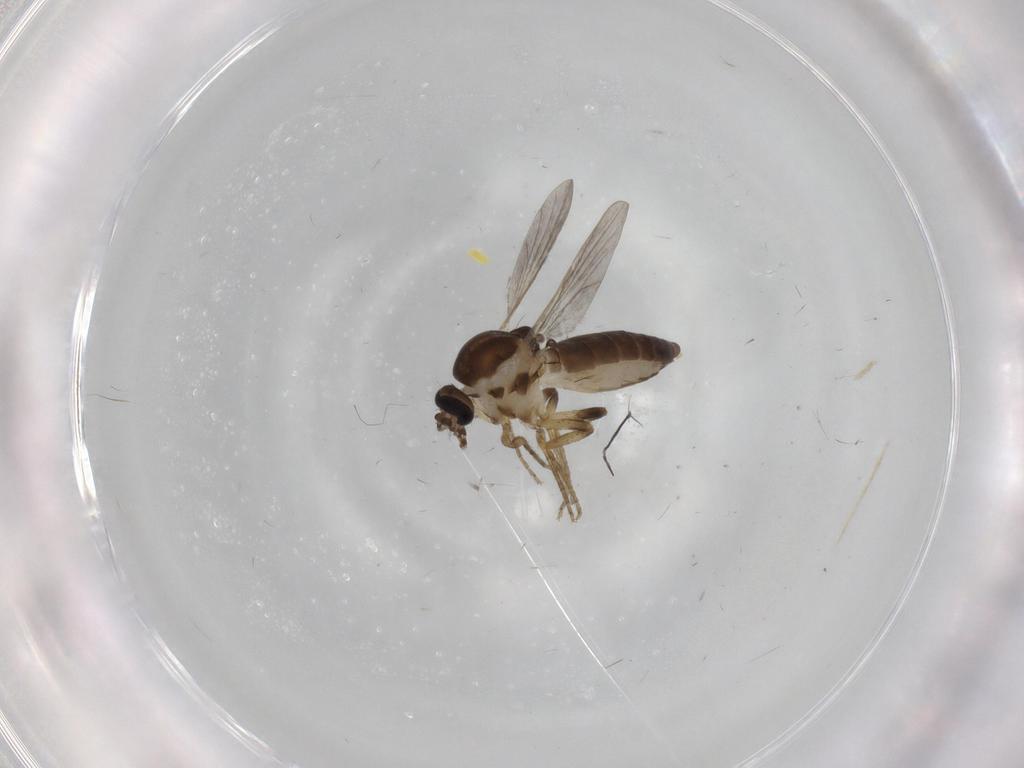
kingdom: Animalia
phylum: Arthropoda
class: Insecta
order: Diptera
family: Ceratopogonidae
